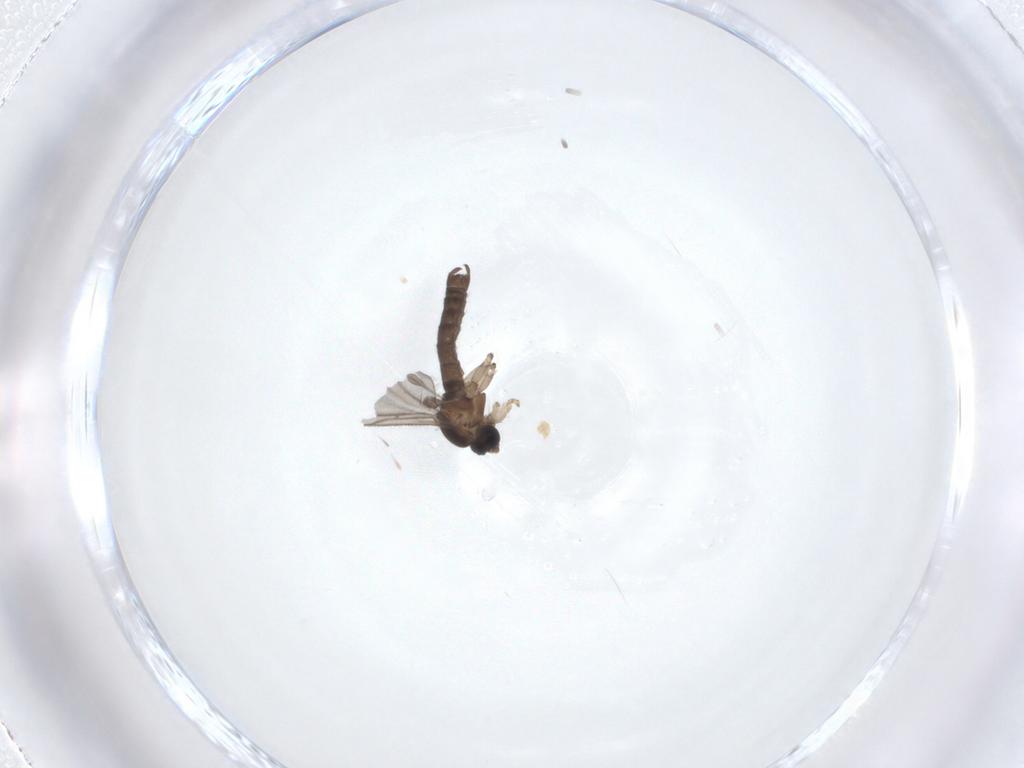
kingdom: Animalia
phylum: Arthropoda
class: Insecta
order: Diptera
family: Sciaridae
